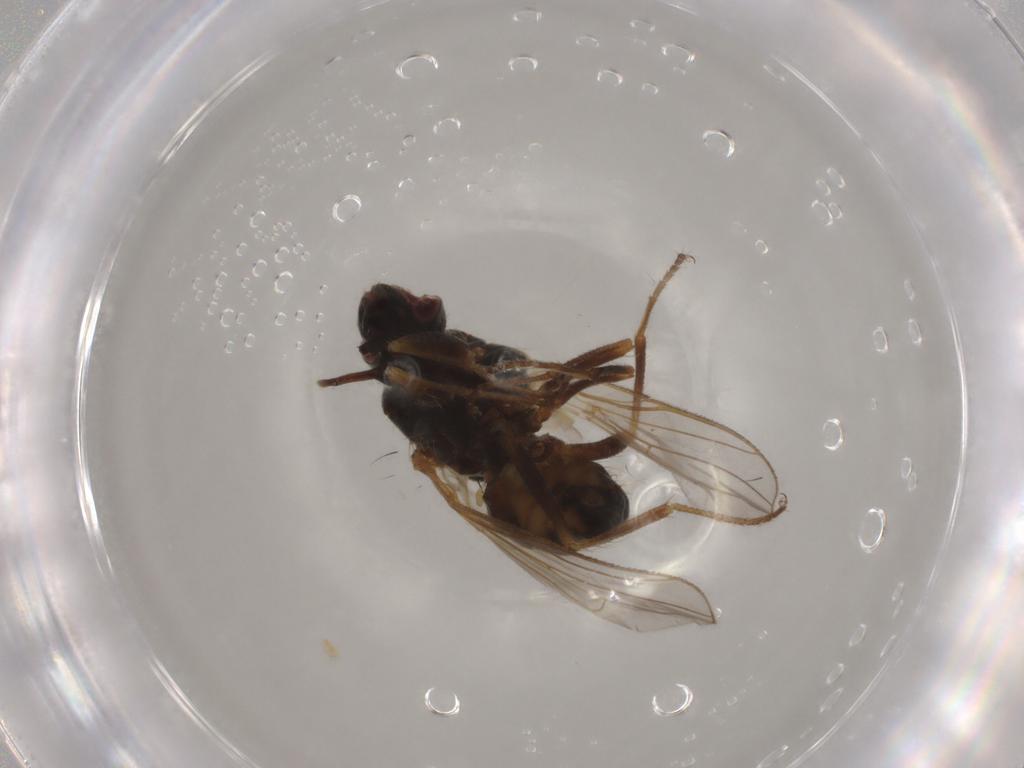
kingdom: Animalia
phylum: Arthropoda
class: Insecta
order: Diptera
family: Ceratopogonidae
